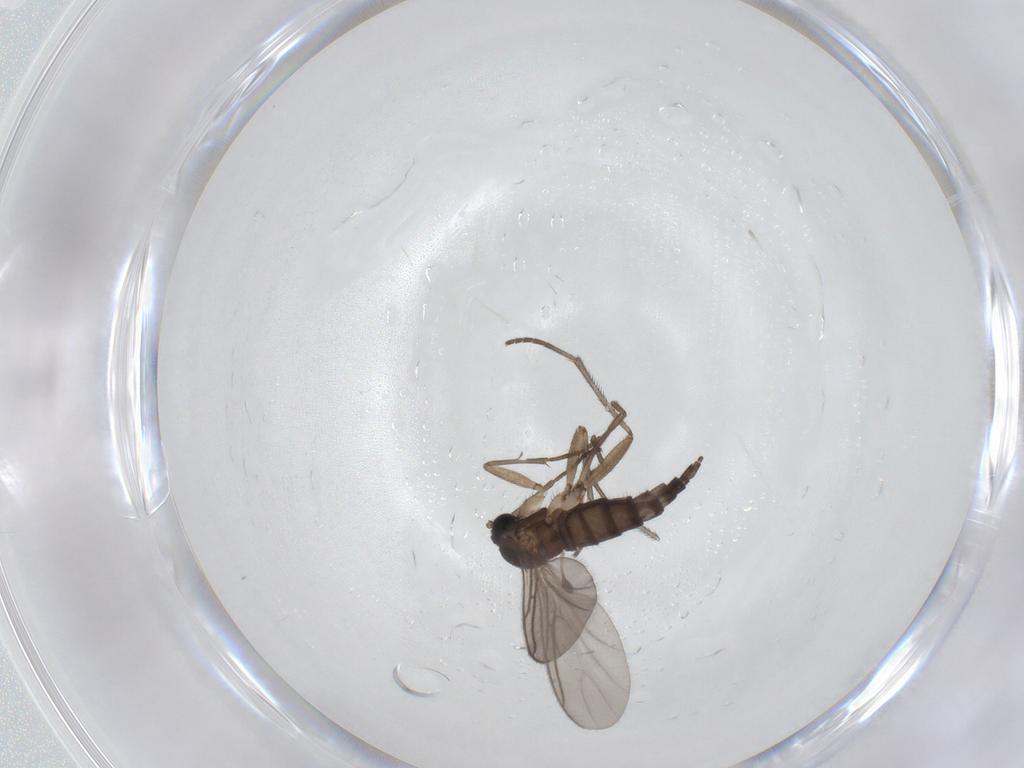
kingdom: Animalia
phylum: Arthropoda
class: Insecta
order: Diptera
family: Sciaridae
